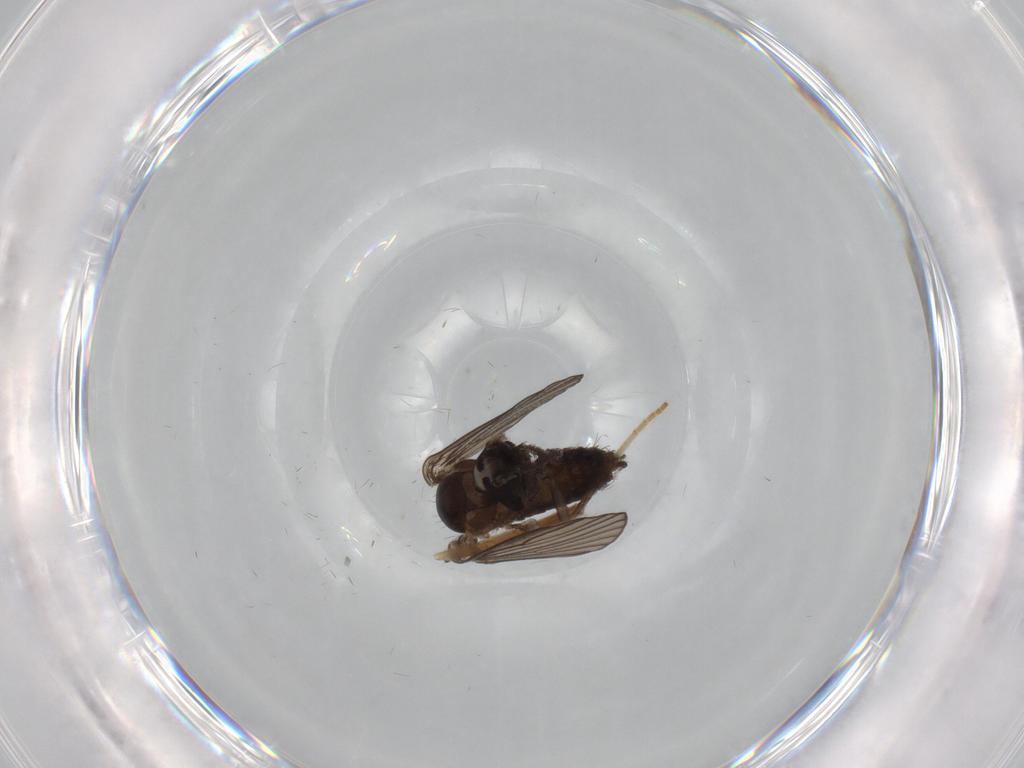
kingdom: Animalia
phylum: Arthropoda
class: Insecta
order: Diptera
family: Psychodidae
